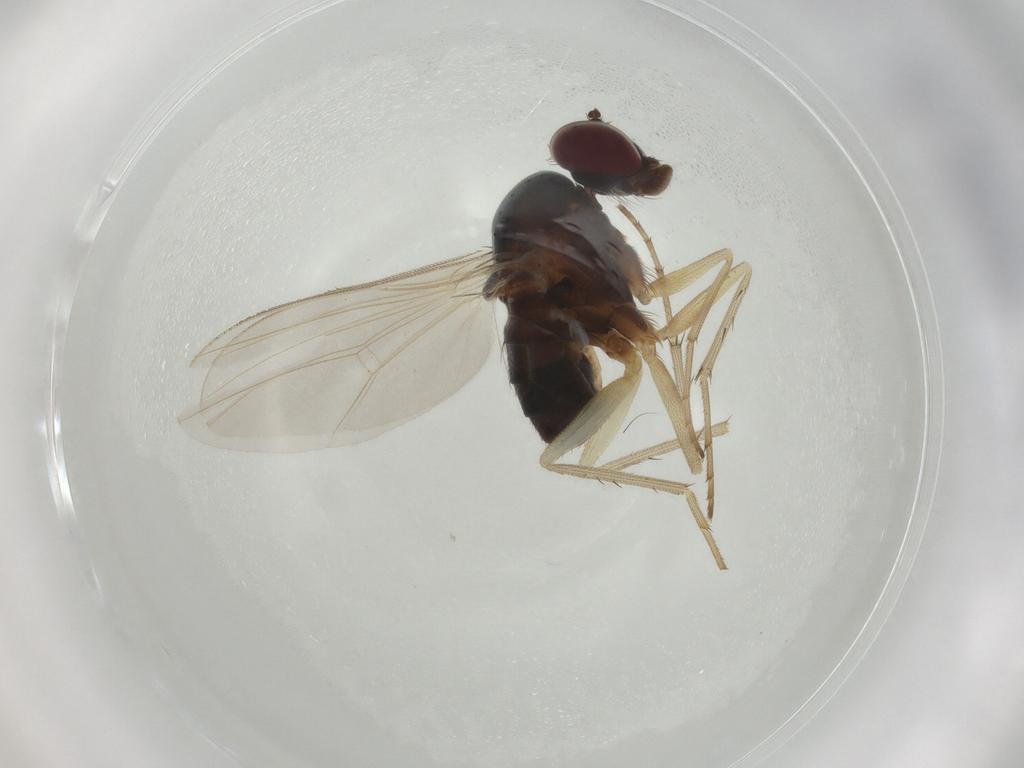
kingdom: Animalia
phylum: Arthropoda
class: Insecta
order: Diptera
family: Dolichopodidae
